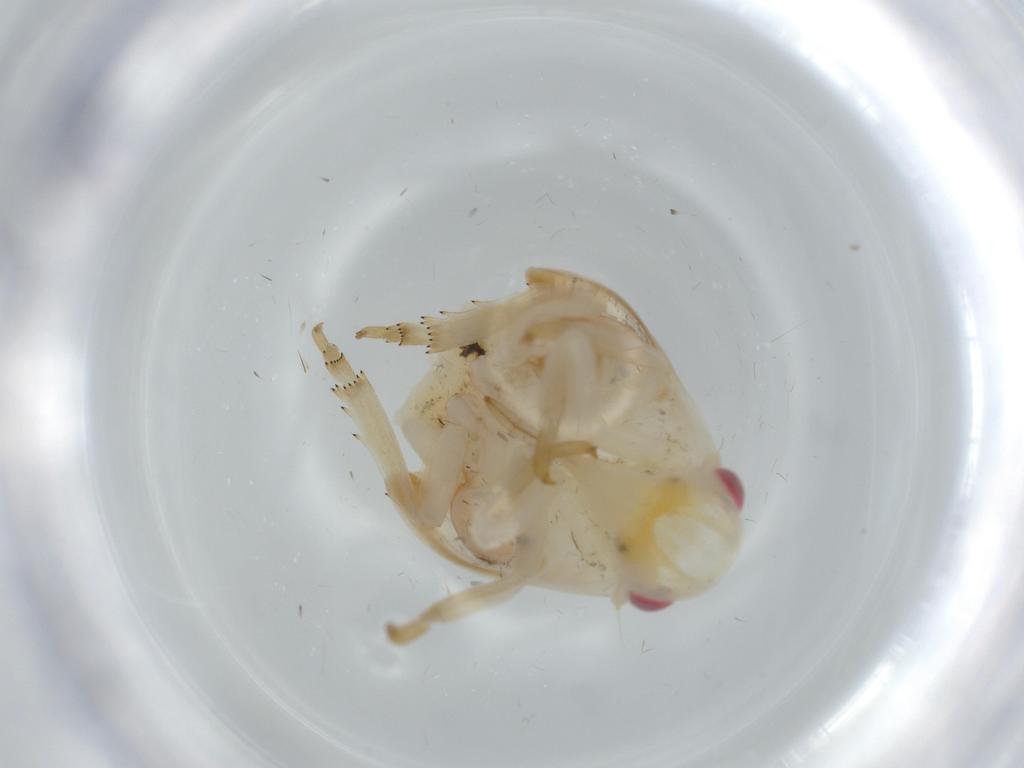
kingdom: Animalia
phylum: Arthropoda
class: Insecta
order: Hemiptera
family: Flatidae
